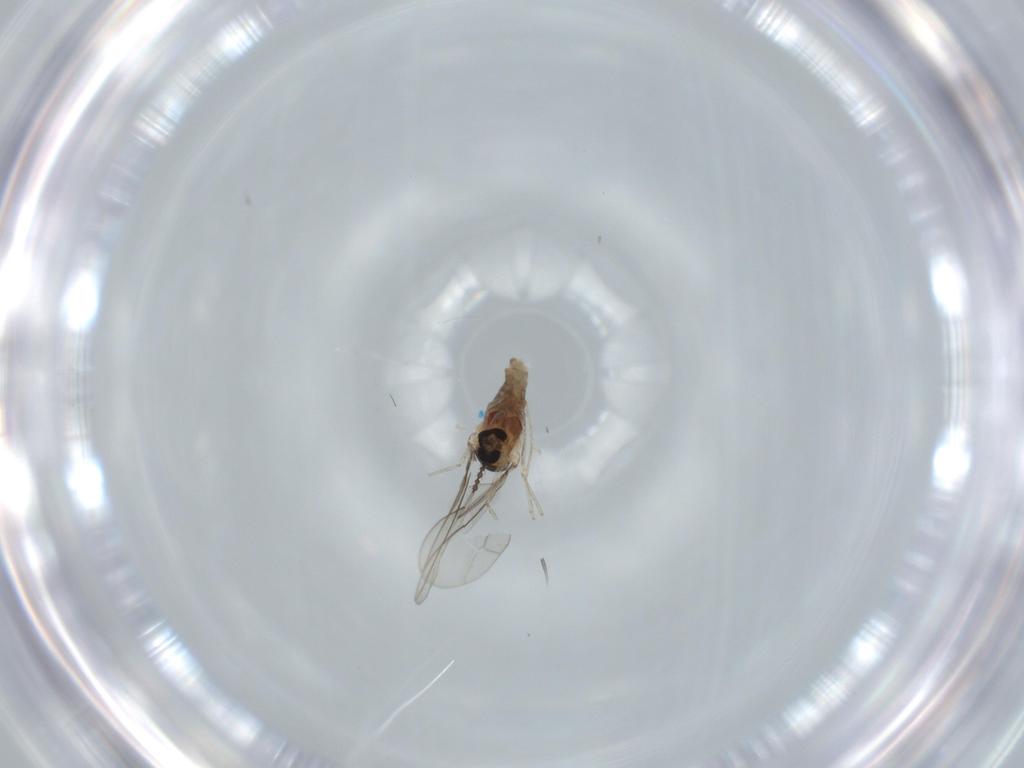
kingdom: Animalia
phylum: Arthropoda
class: Insecta
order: Diptera
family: Cecidomyiidae
